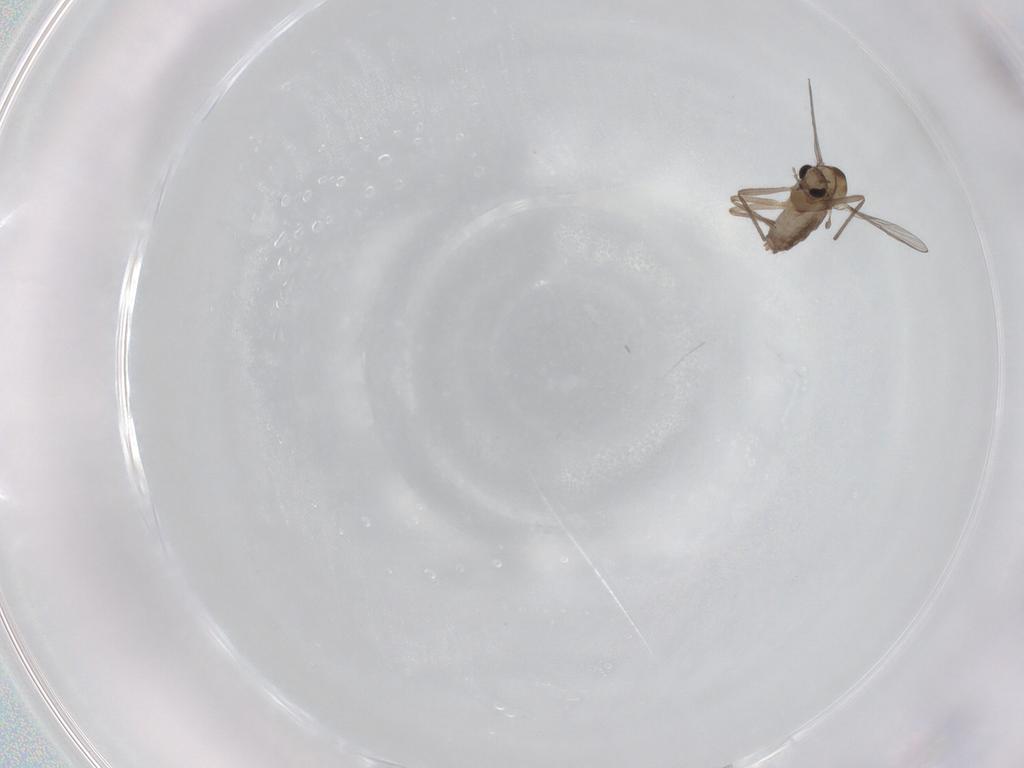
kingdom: Animalia
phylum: Arthropoda
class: Insecta
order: Diptera
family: Chironomidae
